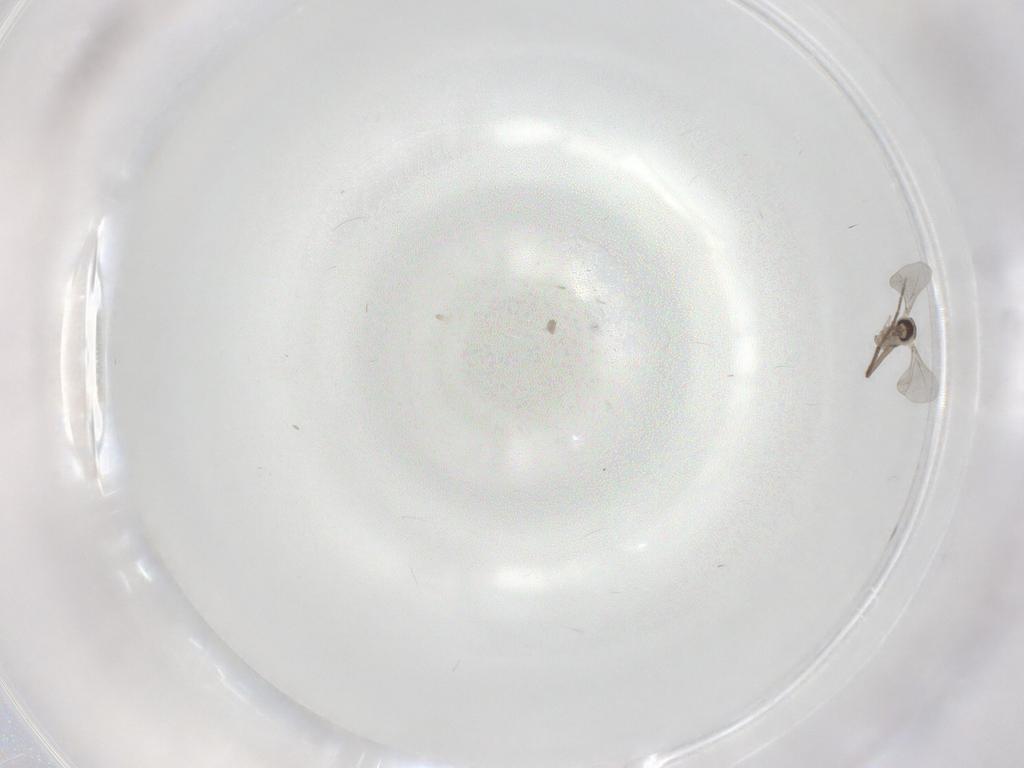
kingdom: Animalia
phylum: Arthropoda
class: Insecta
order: Diptera
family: Chironomidae
